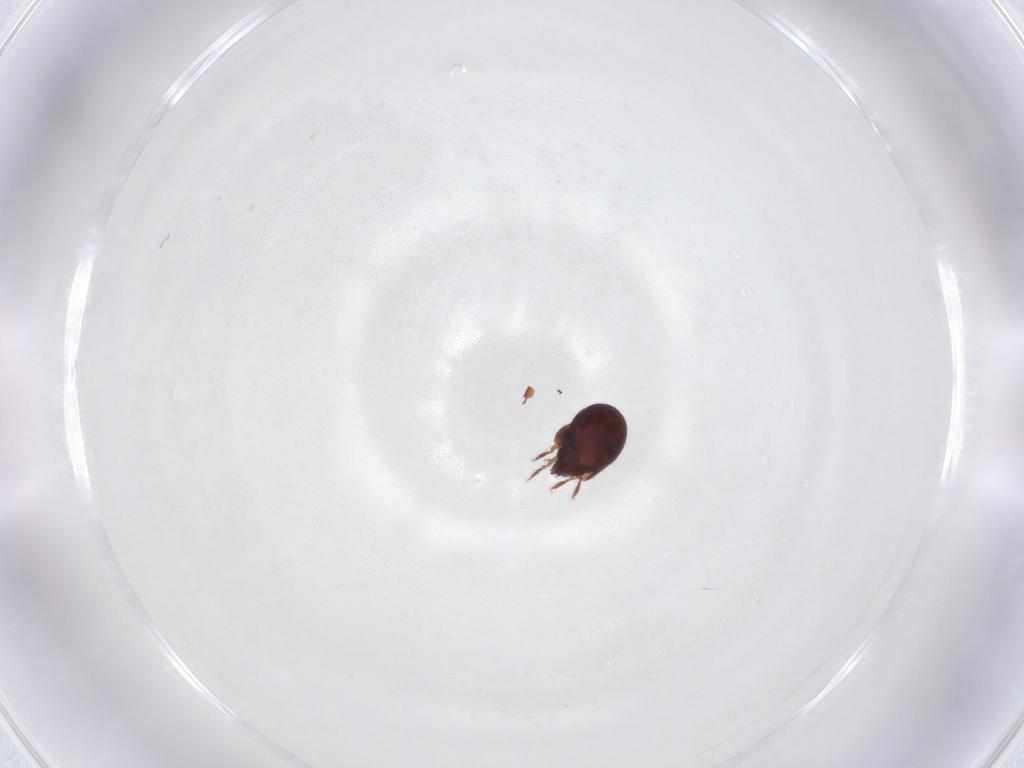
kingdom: Animalia
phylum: Arthropoda
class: Arachnida
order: Sarcoptiformes
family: Humerobatidae
